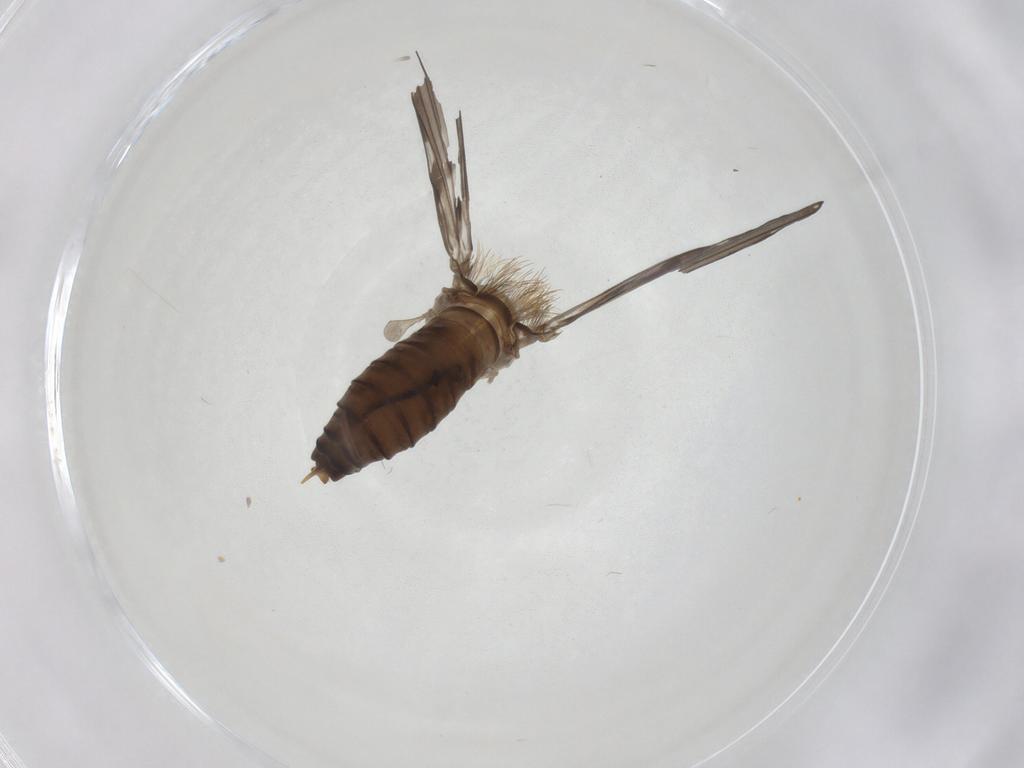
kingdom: Animalia
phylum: Arthropoda
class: Insecta
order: Diptera
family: Psychodidae
